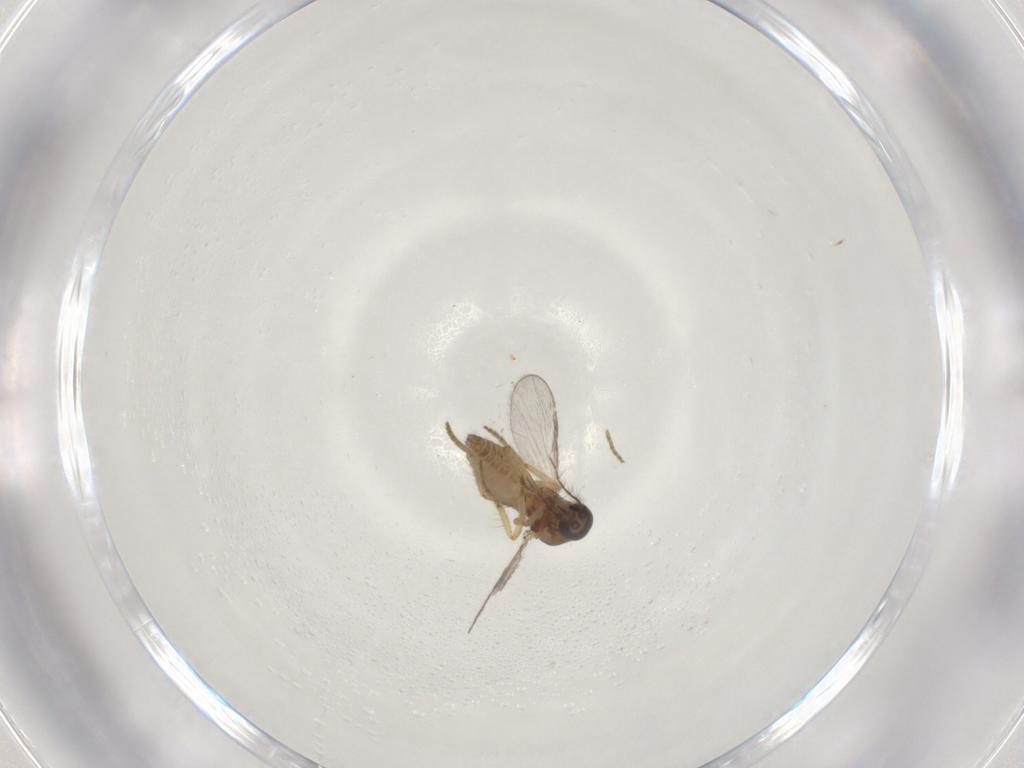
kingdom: Animalia
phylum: Arthropoda
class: Insecta
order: Diptera
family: Ceratopogonidae
